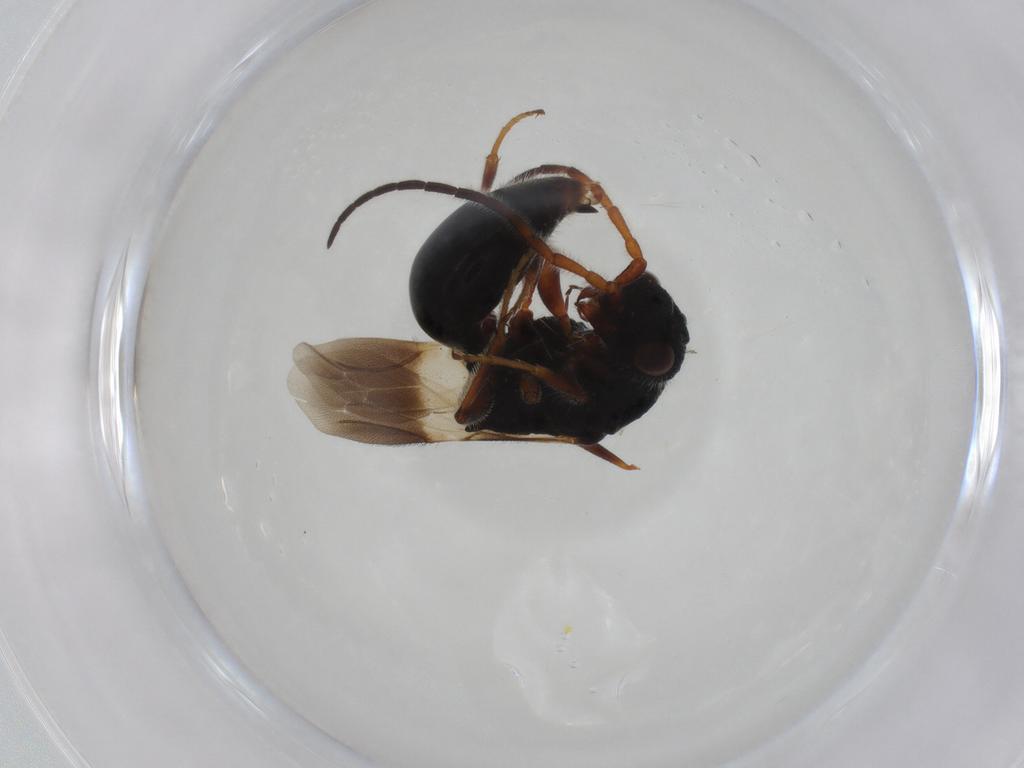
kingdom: Animalia
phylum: Arthropoda
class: Insecta
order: Hymenoptera
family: Bethylidae
